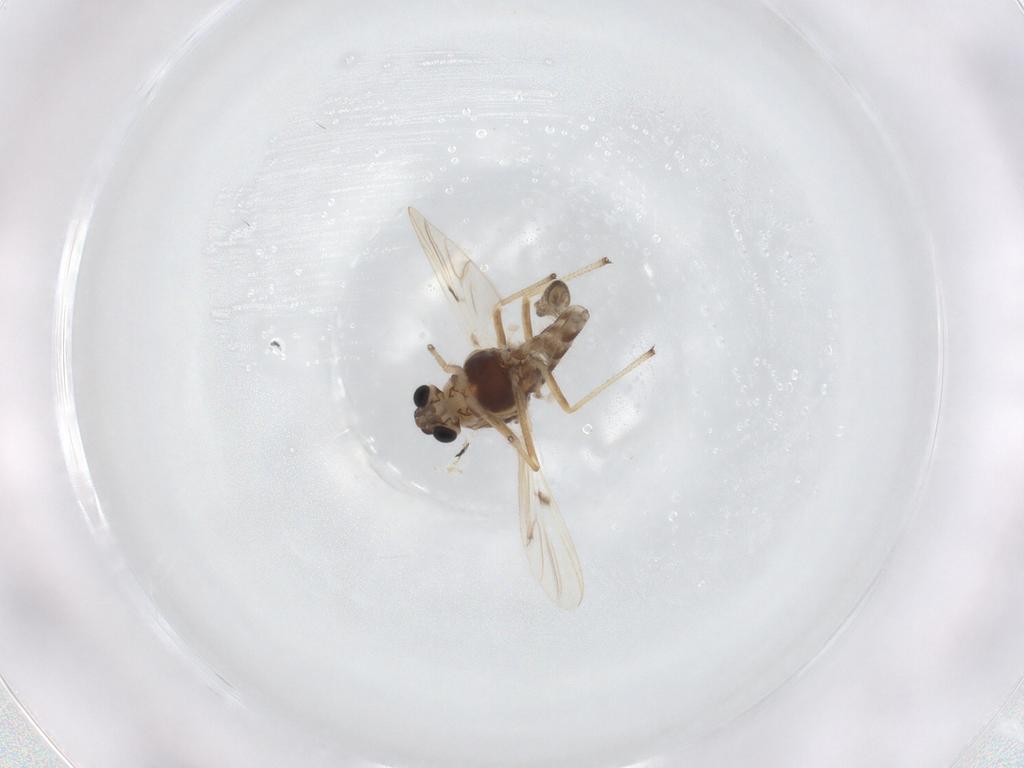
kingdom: Animalia
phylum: Arthropoda
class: Insecta
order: Diptera
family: Chironomidae
